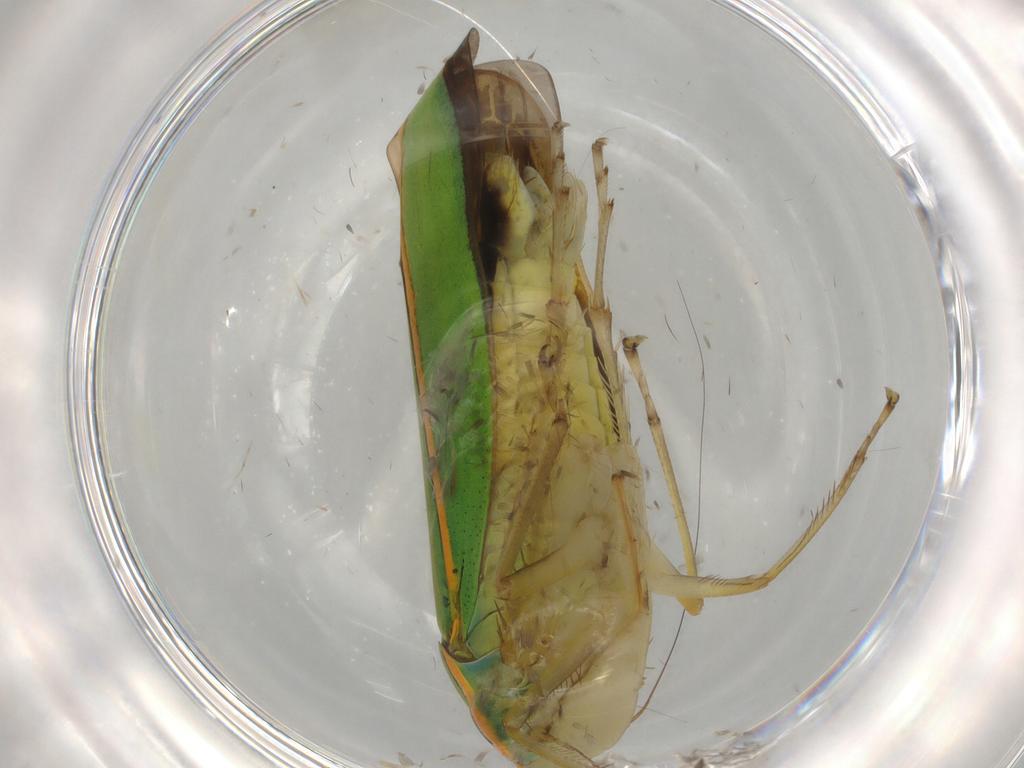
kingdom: Animalia
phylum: Arthropoda
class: Insecta
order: Hemiptera
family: Cicadellidae
